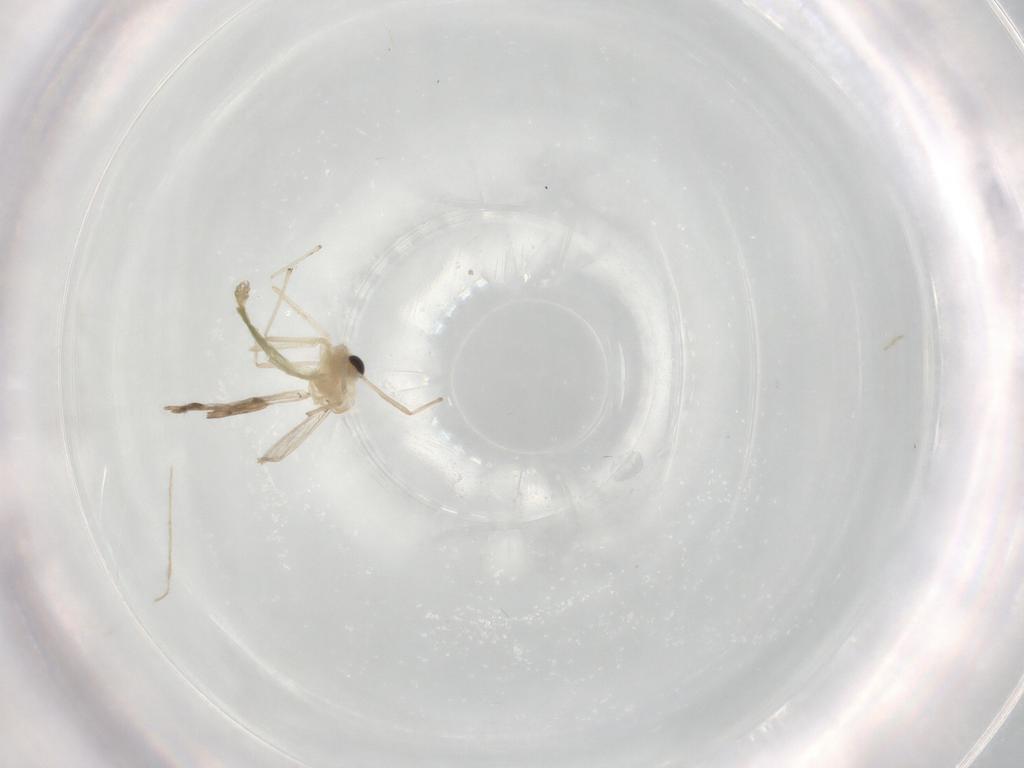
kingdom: Animalia
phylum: Arthropoda
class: Insecta
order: Diptera
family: Chironomidae
